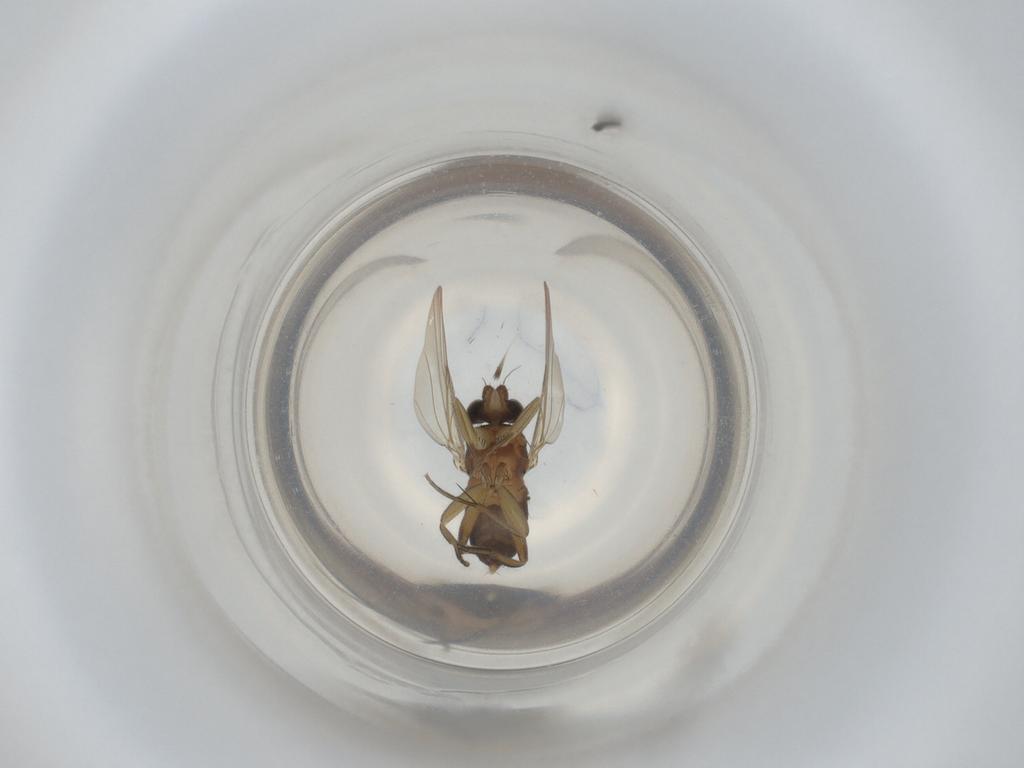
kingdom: Animalia
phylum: Arthropoda
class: Insecta
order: Diptera
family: Phoridae
